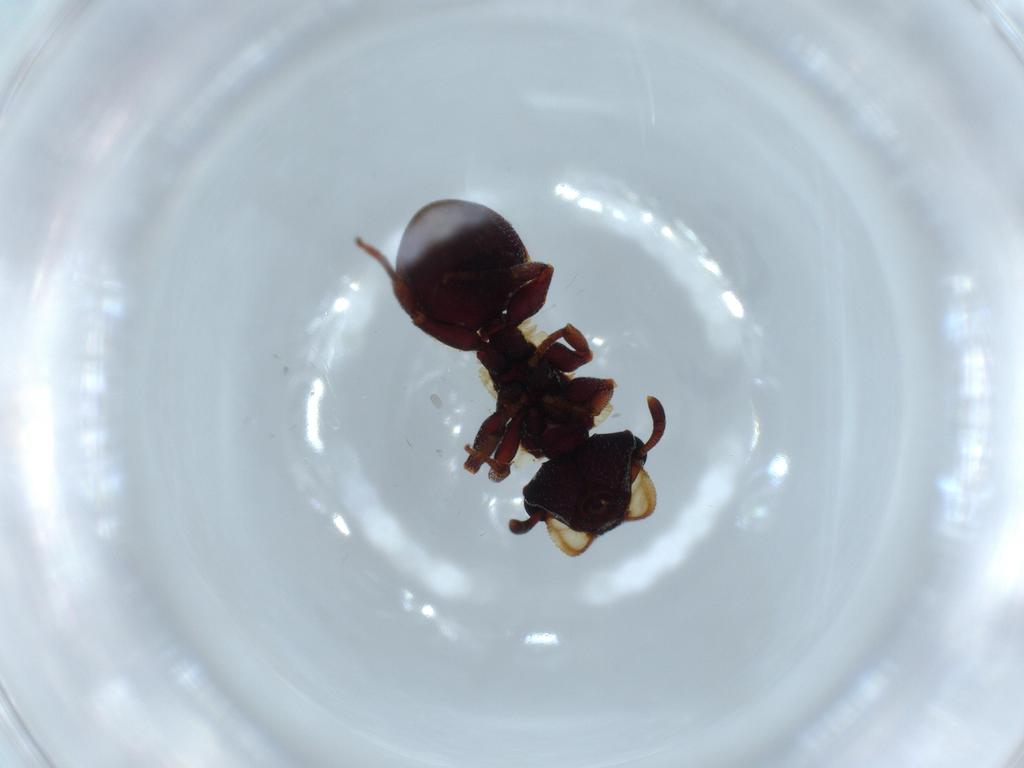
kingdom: Animalia
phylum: Arthropoda
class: Insecta
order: Hymenoptera
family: Formicidae
